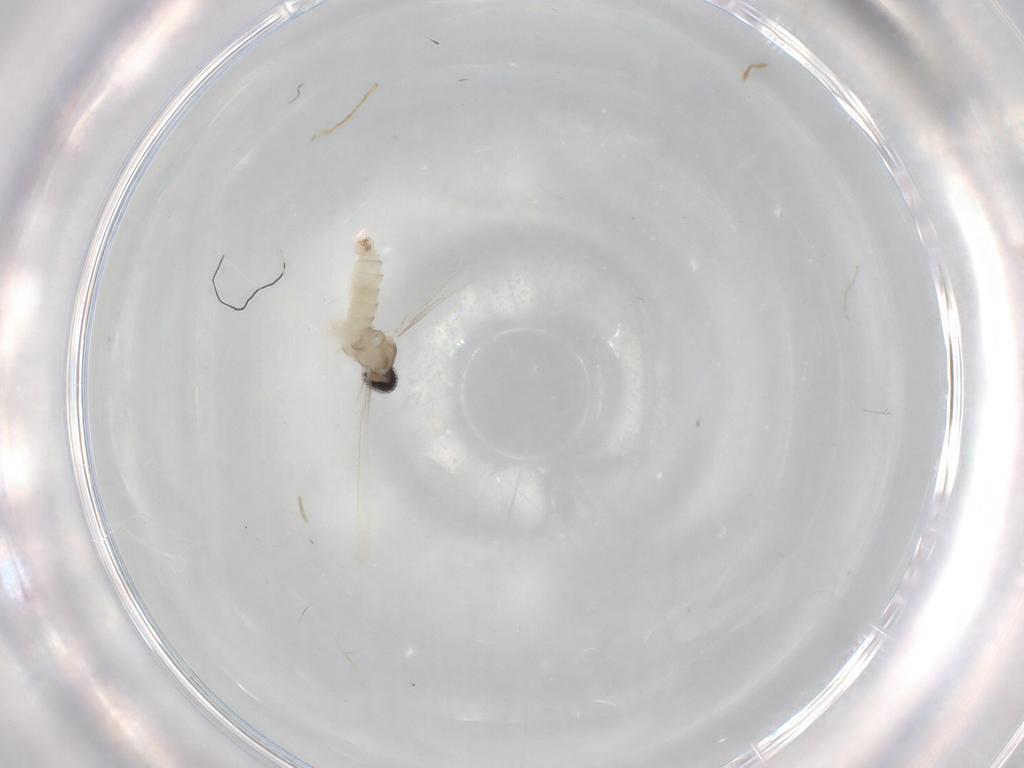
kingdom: Animalia
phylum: Arthropoda
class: Insecta
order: Diptera
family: Cecidomyiidae
